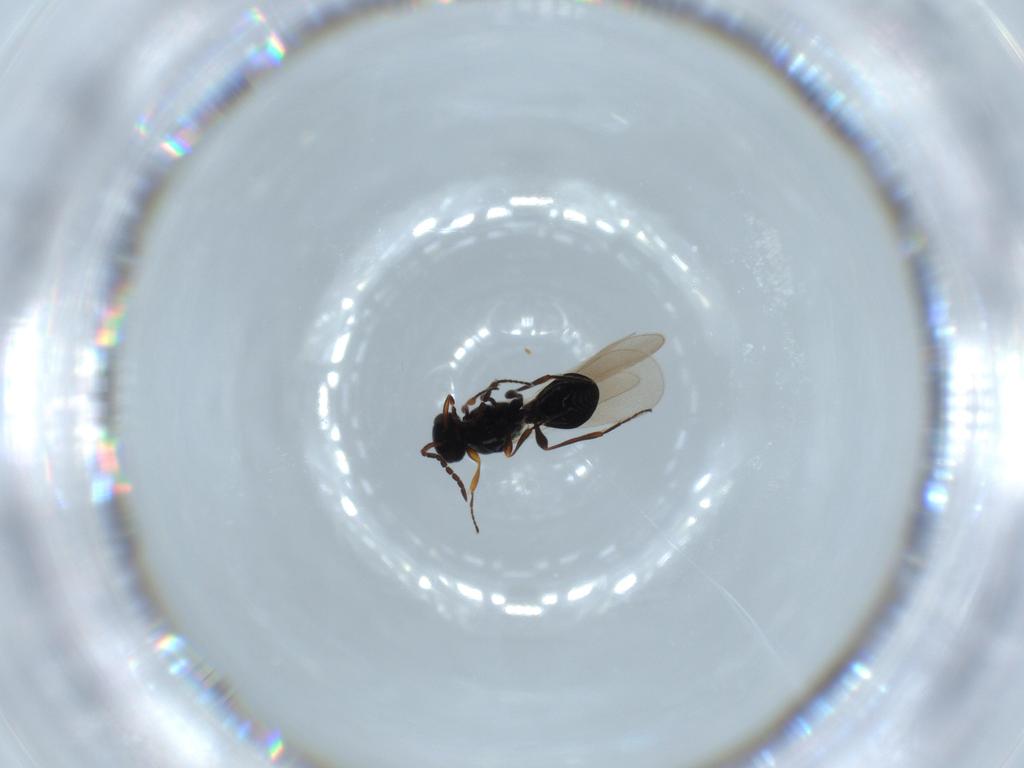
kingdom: Animalia
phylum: Arthropoda
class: Insecta
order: Hymenoptera
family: Platygastridae
